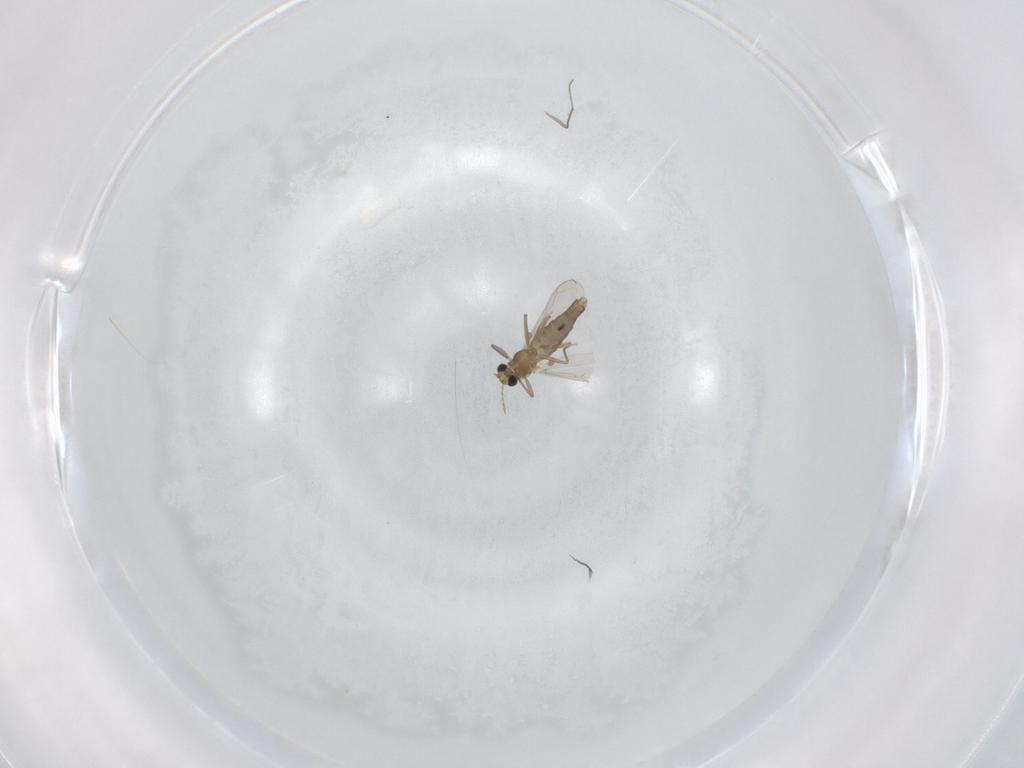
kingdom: Animalia
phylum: Arthropoda
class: Insecta
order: Diptera
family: Chironomidae
